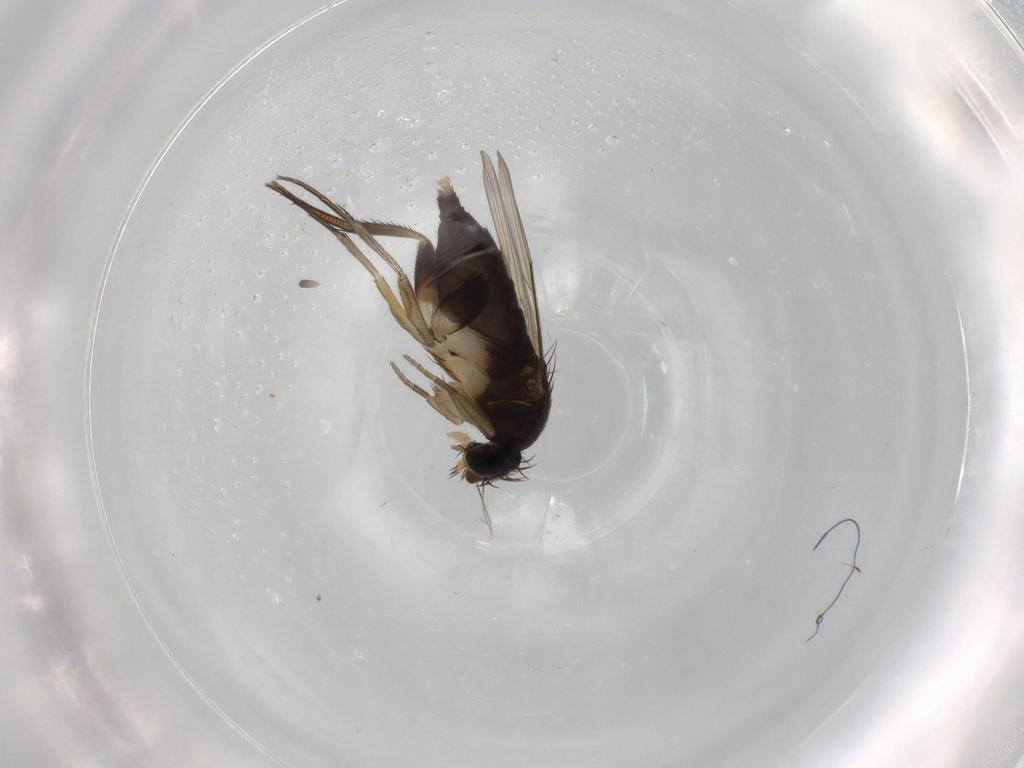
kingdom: Animalia
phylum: Arthropoda
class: Insecta
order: Diptera
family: Phoridae
